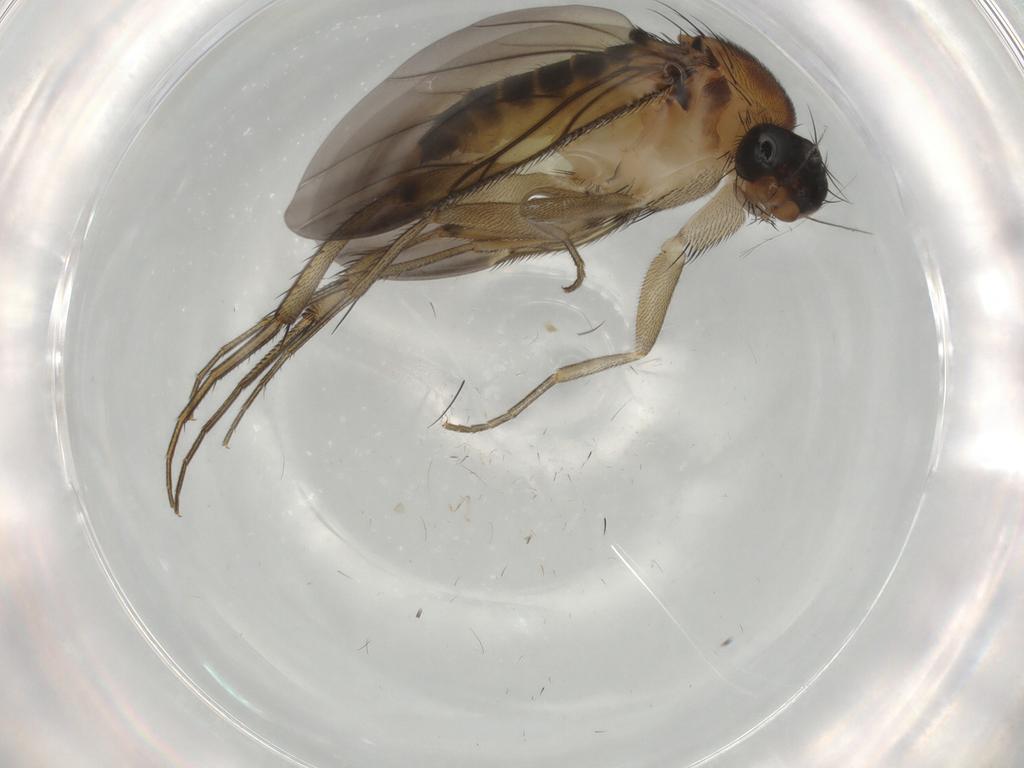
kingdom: Animalia
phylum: Arthropoda
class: Insecta
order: Diptera
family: Phoridae
